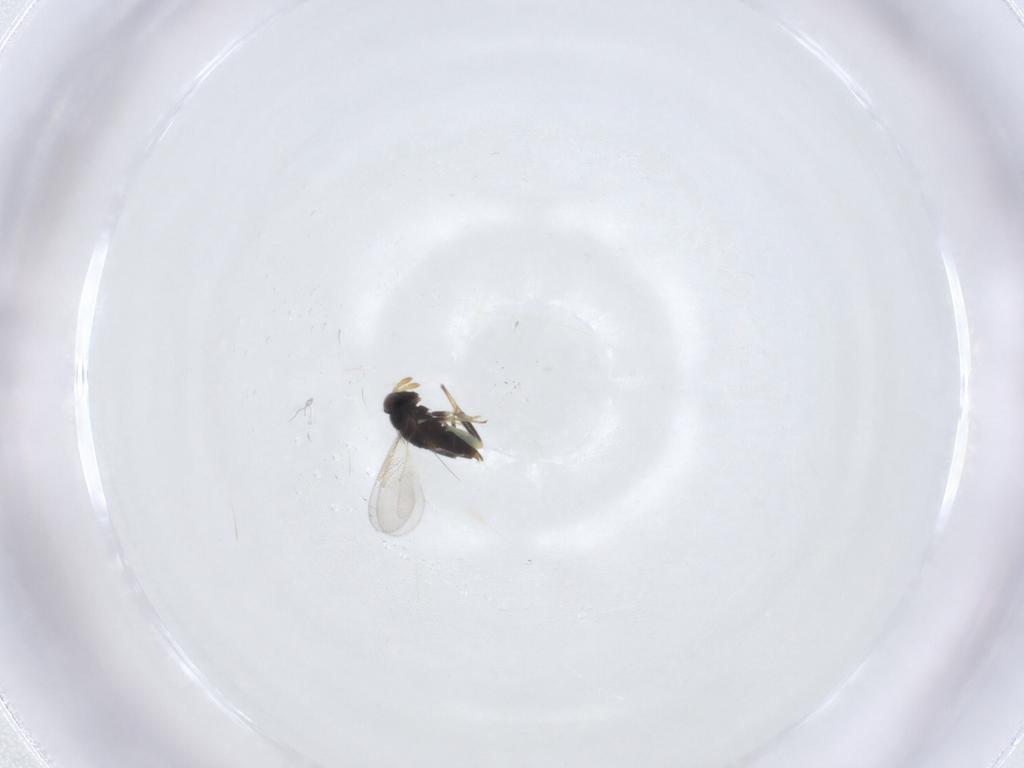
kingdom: Animalia
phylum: Arthropoda
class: Insecta
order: Hymenoptera
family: Aphelinidae
